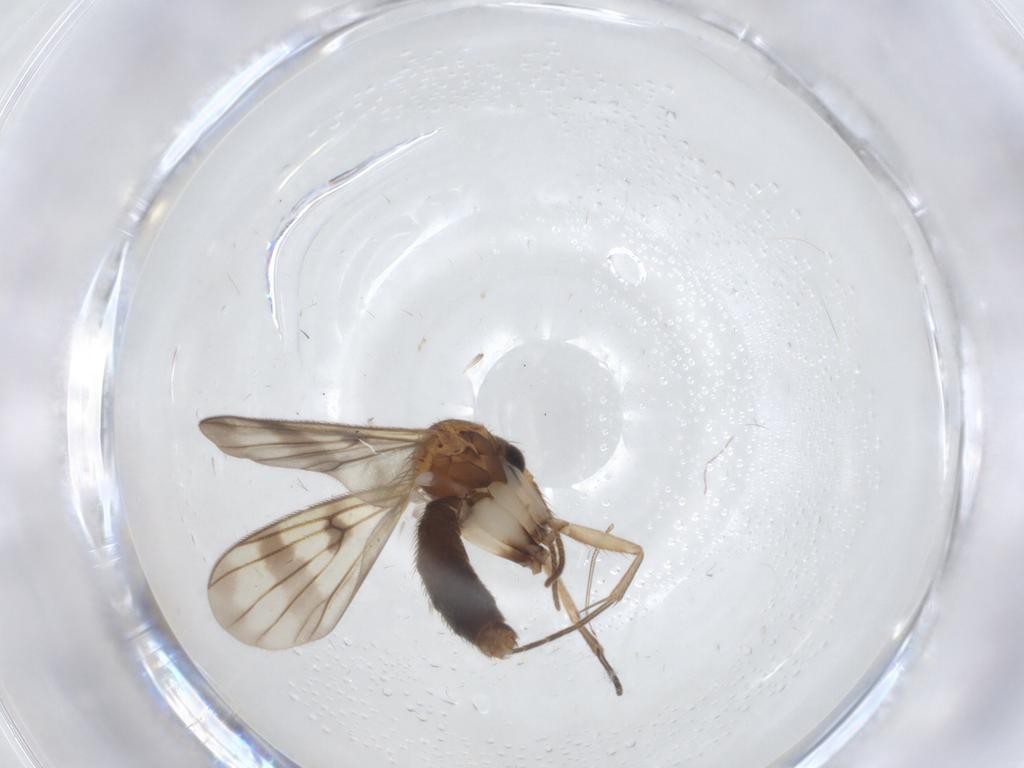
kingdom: Animalia
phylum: Arthropoda
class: Insecta
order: Diptera
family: Mycetophilidae
